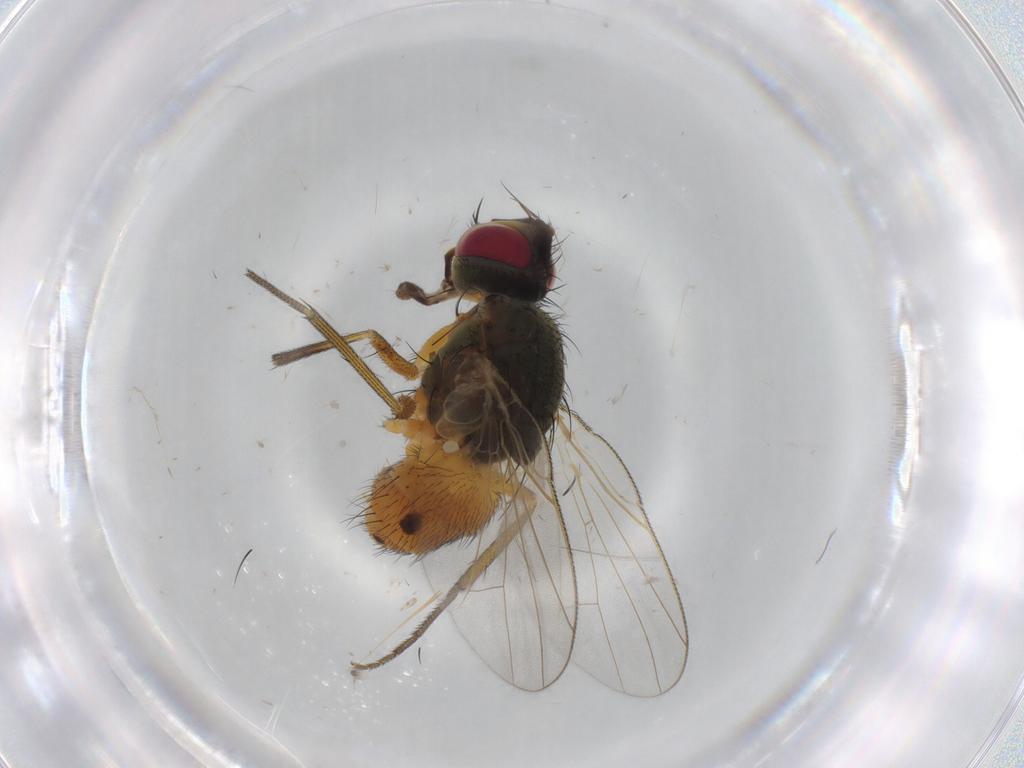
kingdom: Animalia
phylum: Arthropoda
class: Insecta
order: Diptera
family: Muscidae
